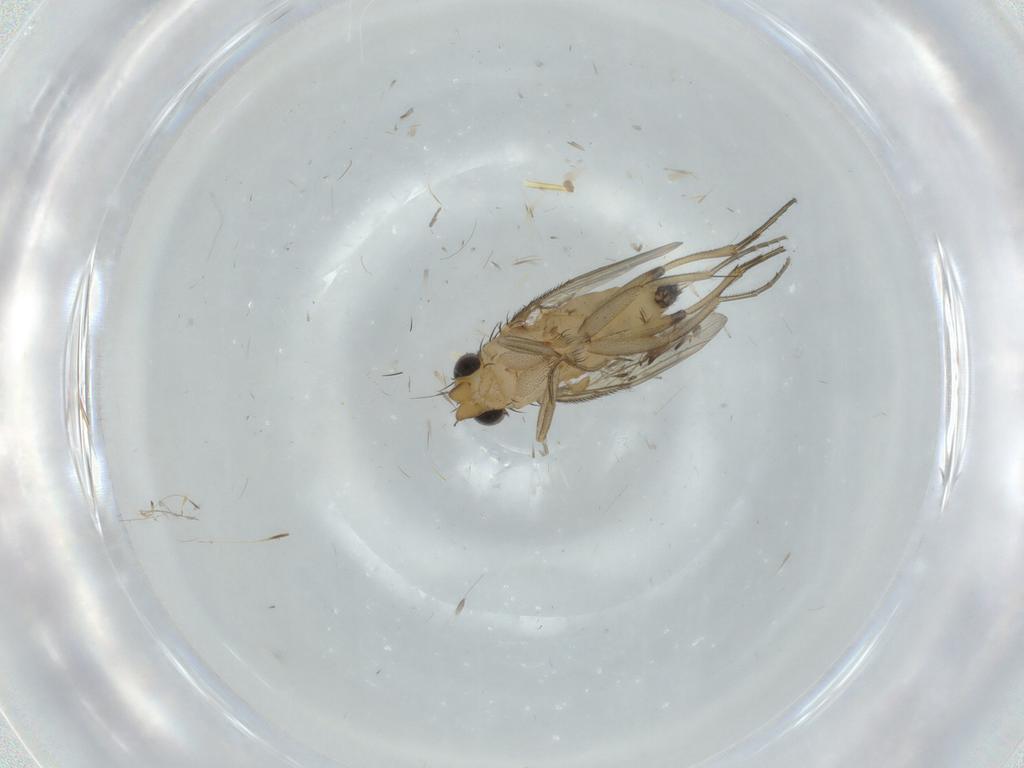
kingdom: Animalia
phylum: Arthropoda
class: Insecta
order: Diptera
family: Phoridae
